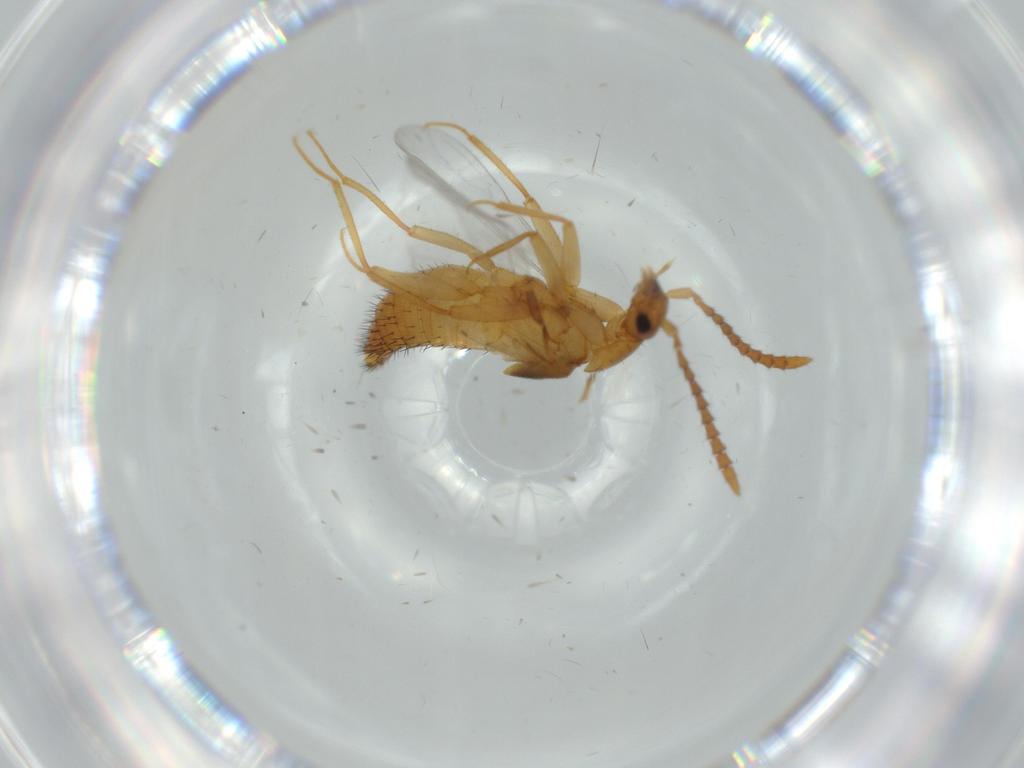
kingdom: Animalia
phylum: Arthropoda
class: Insecta
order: Coleoptera
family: Staphylinidae
